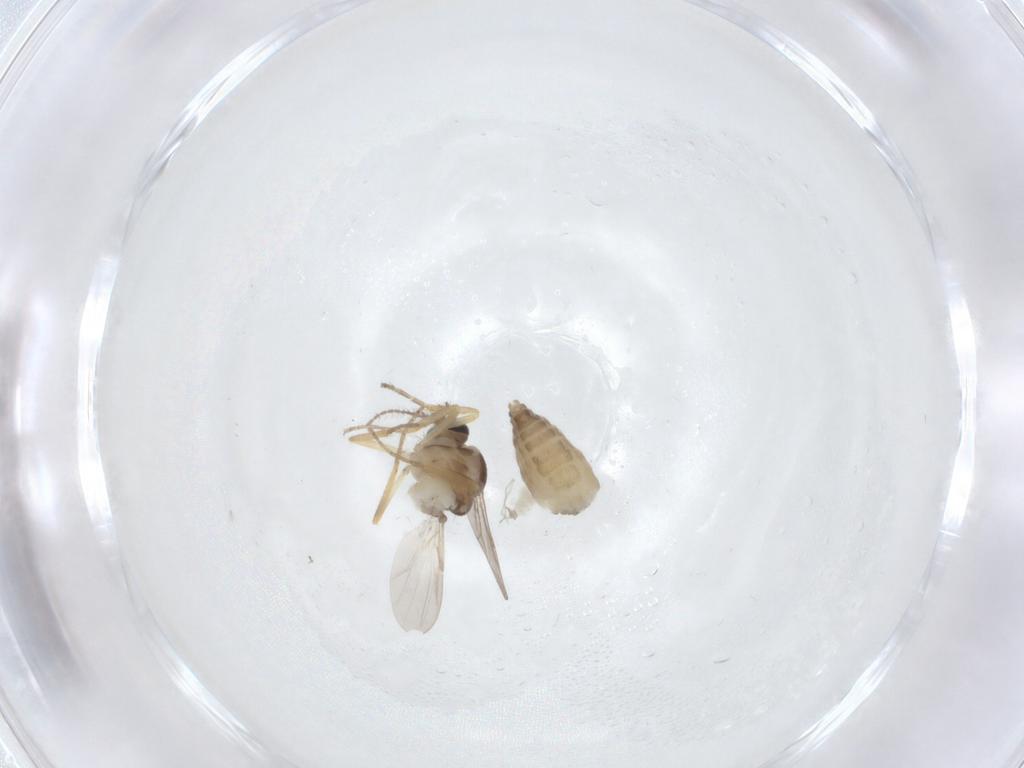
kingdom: Animalia
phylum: Arthropoda
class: Insecta
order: Diptera
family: Ceratopogonidae
